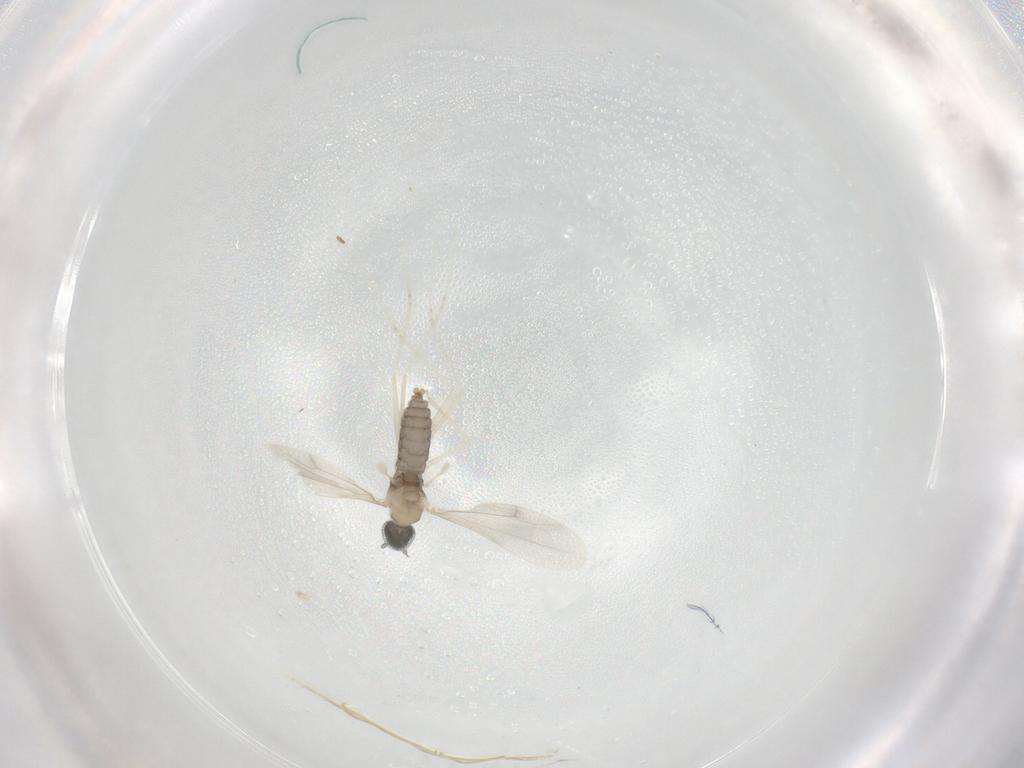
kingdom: Animalia
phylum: Arthropoda
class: Insecta
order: Diptera
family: Cecidomyiidae
